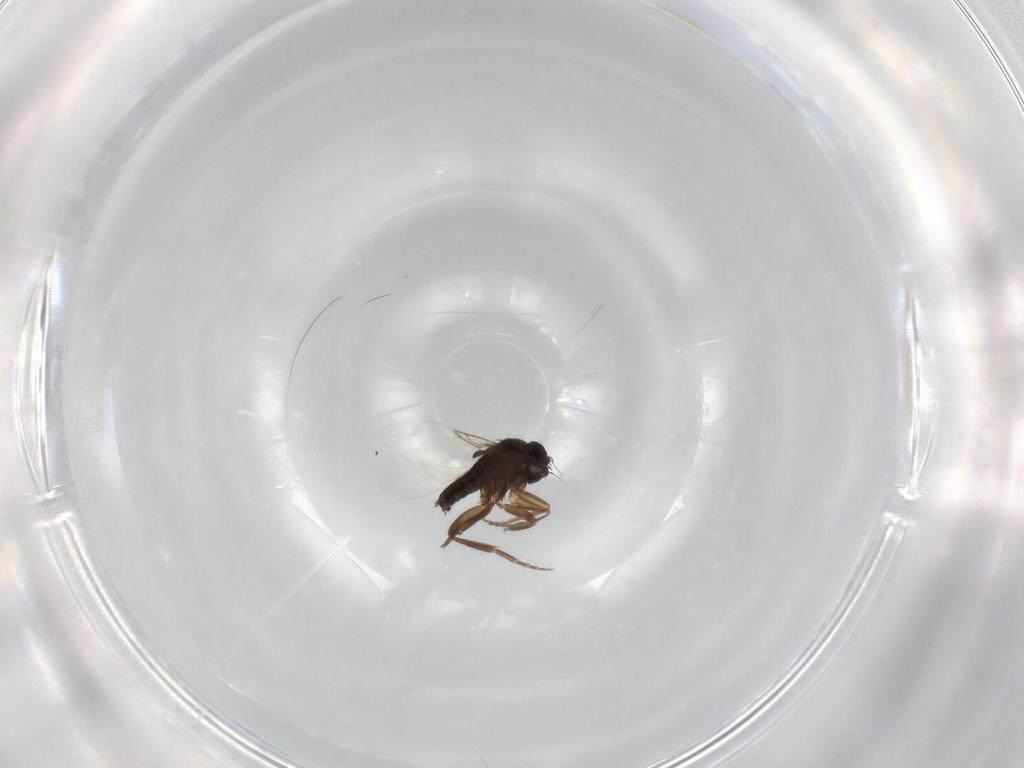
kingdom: Animalia
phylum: Arthropoda
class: Insecta
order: Diptera
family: Phoridae
